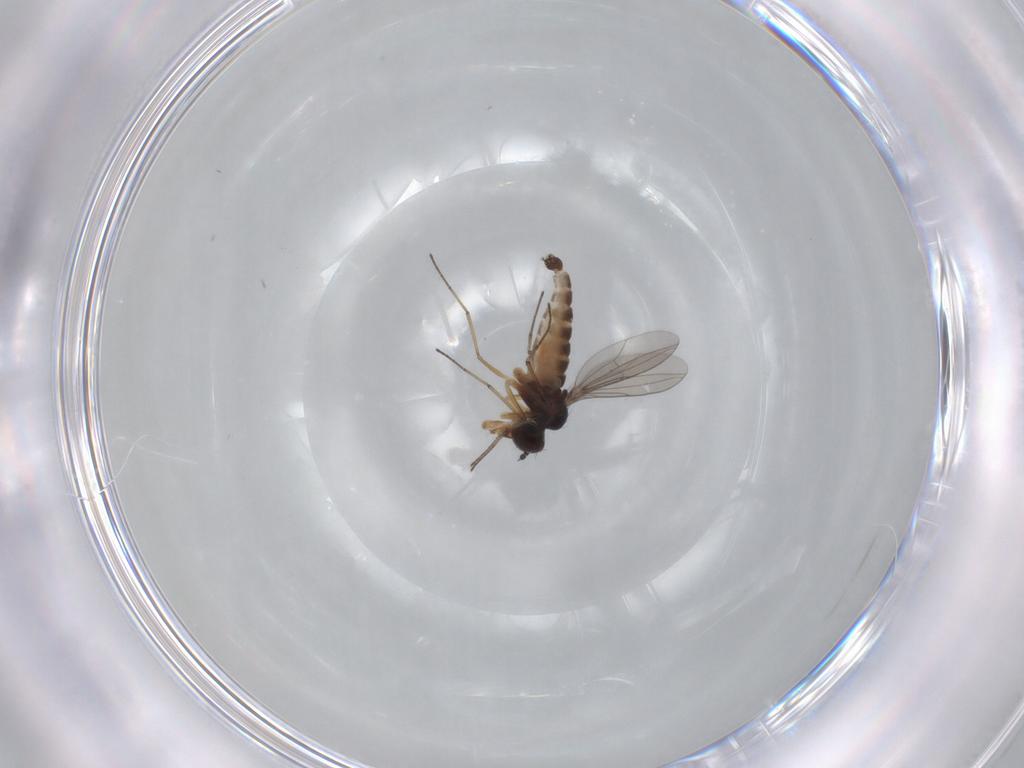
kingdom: Animalia
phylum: Arthropoda
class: Insecta
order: Diptera
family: Dolichopodidae
